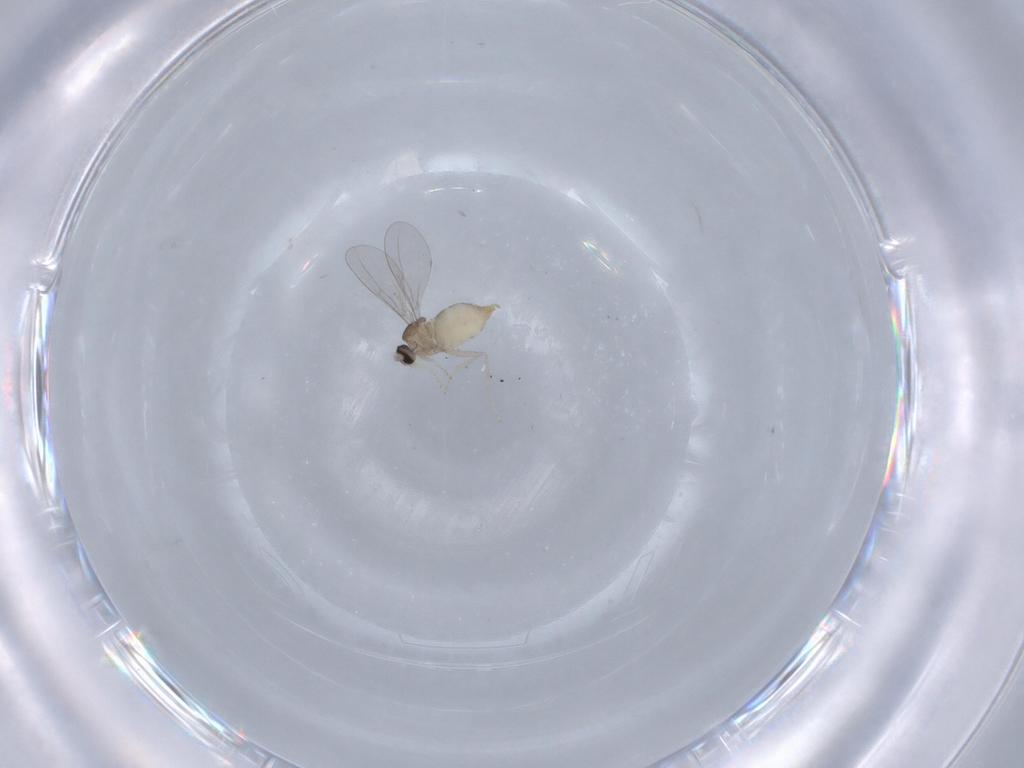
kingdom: Animalia
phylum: Arthropoda
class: Insecta
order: Diptera
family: Cecidomyiidae
